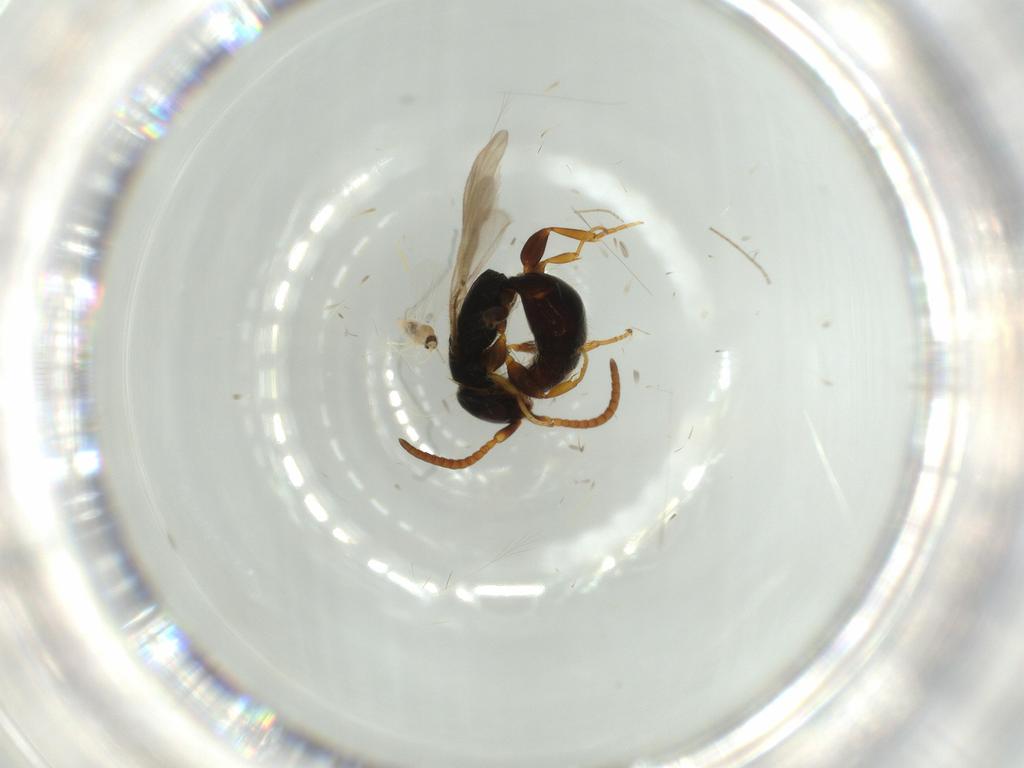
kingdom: Animalia
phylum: Arthropoda
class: Insecta
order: Hymenoptera
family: Bethylidae
